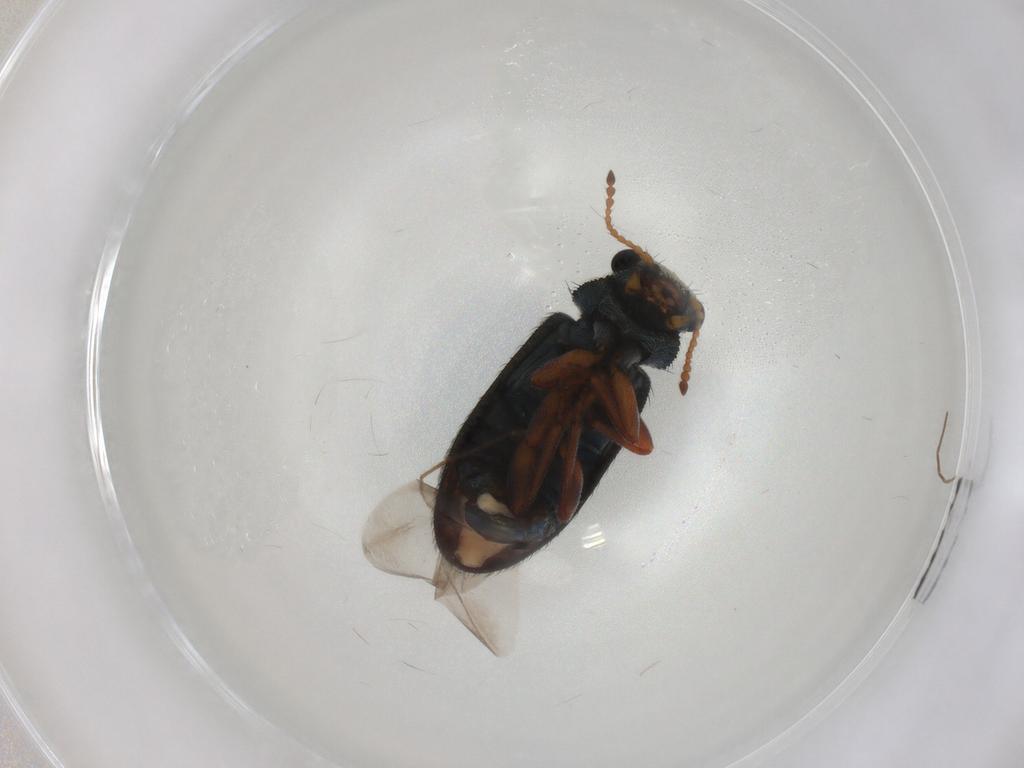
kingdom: Animalia
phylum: Arthropoda
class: Insecta
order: Coleoptera
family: Melyridae
